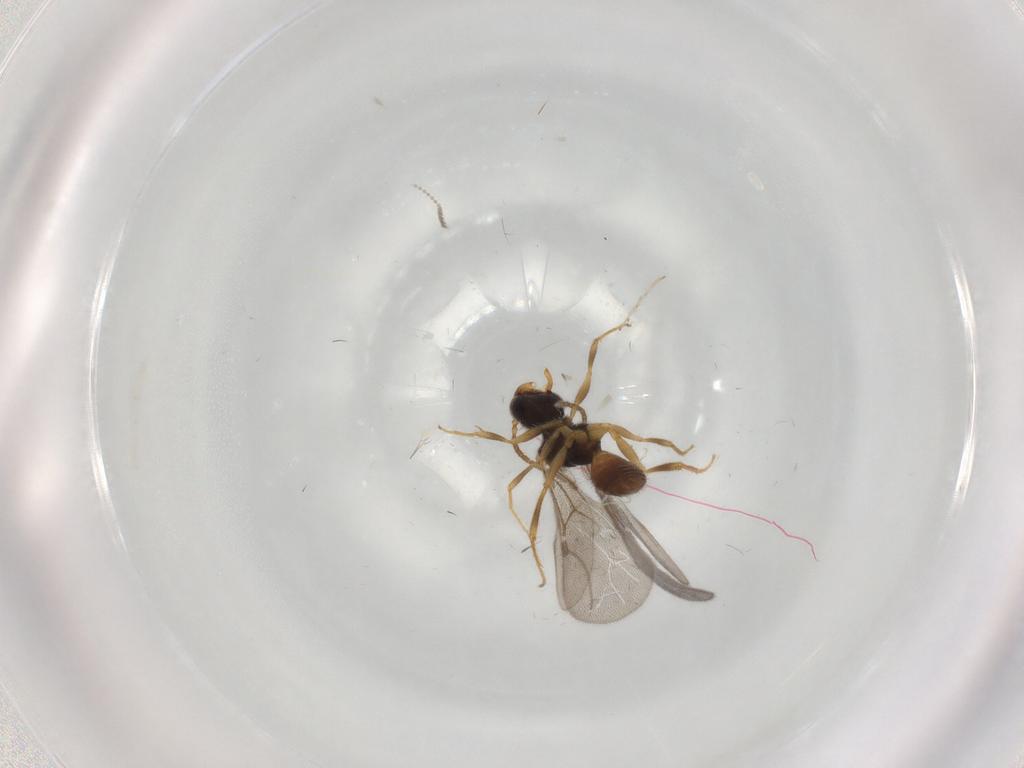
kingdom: Animalia
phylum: Arthropoda
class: Insecta
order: Hymenoptera
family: Bethylidae
